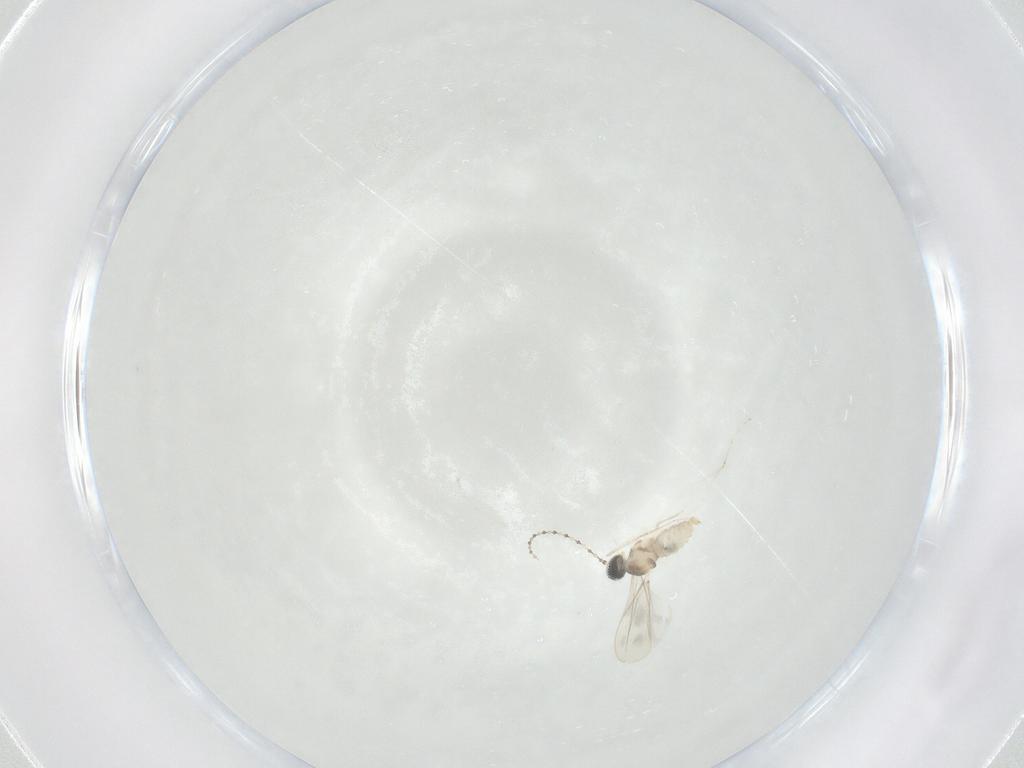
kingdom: Animalia
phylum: Arthropoda
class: Insecta
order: Diptera
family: Cecidomyiidae
